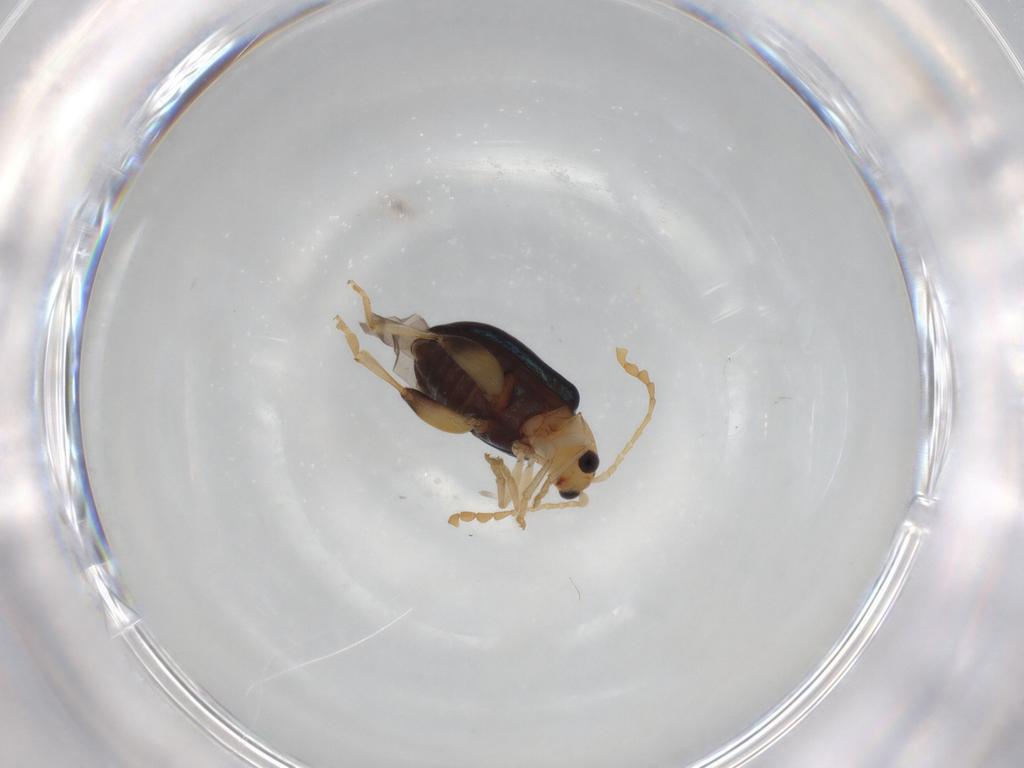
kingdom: Animalia
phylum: Arthropoda
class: Insecta
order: Coleoptera
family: Chrysomelidae
